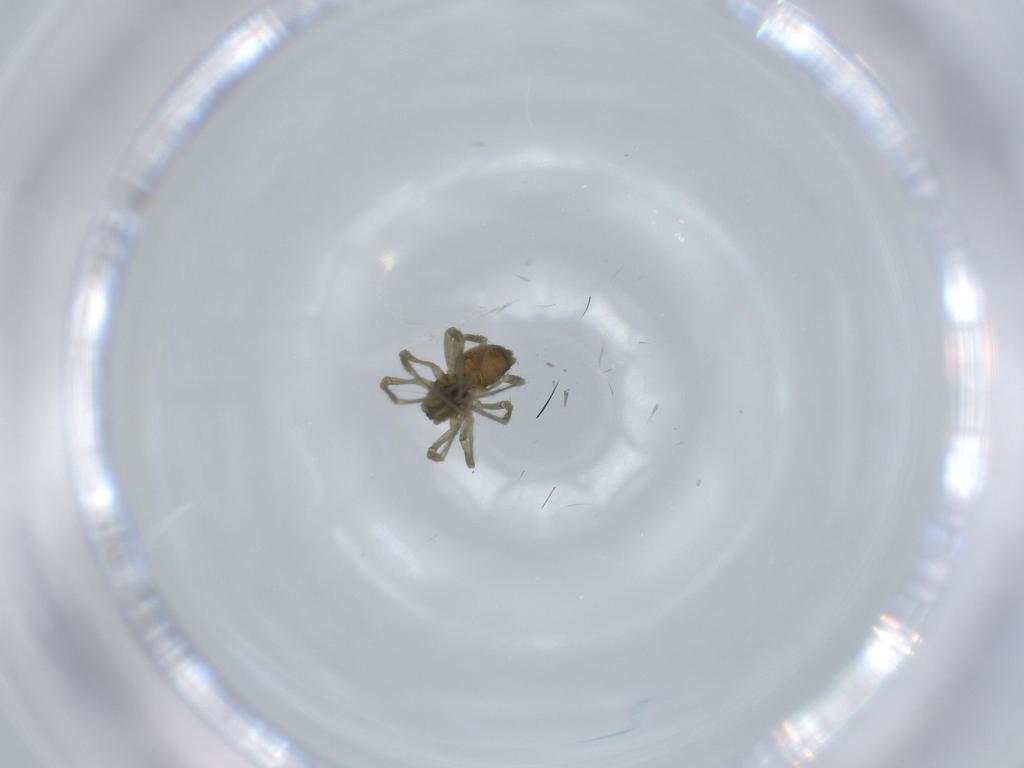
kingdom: Animalia
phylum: Arthropoda
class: Arachnida
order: Araneae
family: Linyphiidae
